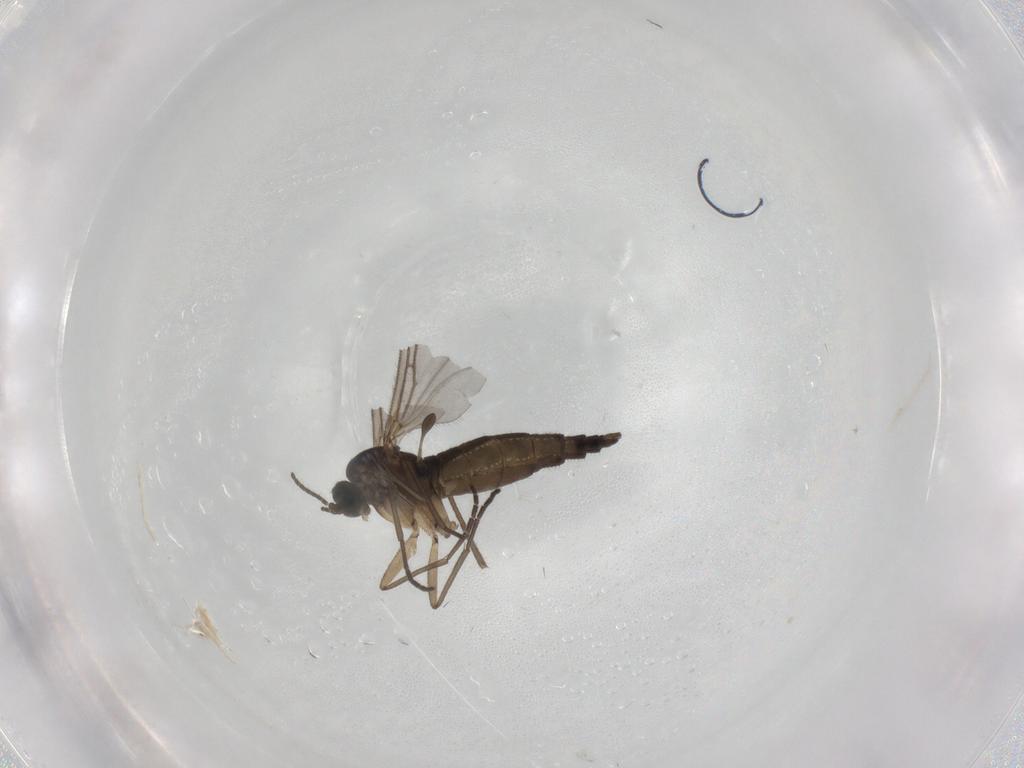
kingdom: Animalia
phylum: Arthropoda
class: Insecta
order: Diptera
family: Sciaridae
